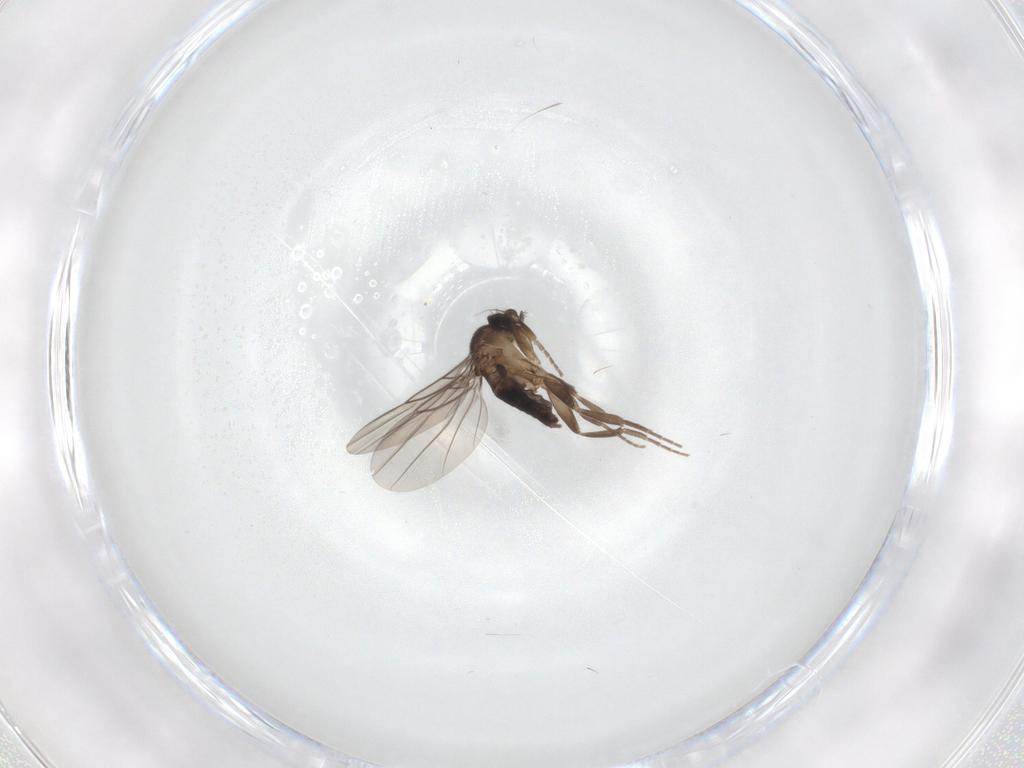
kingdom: Animalia
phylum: Arthropoda
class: Insecta
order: Diptera
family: Phoridae
